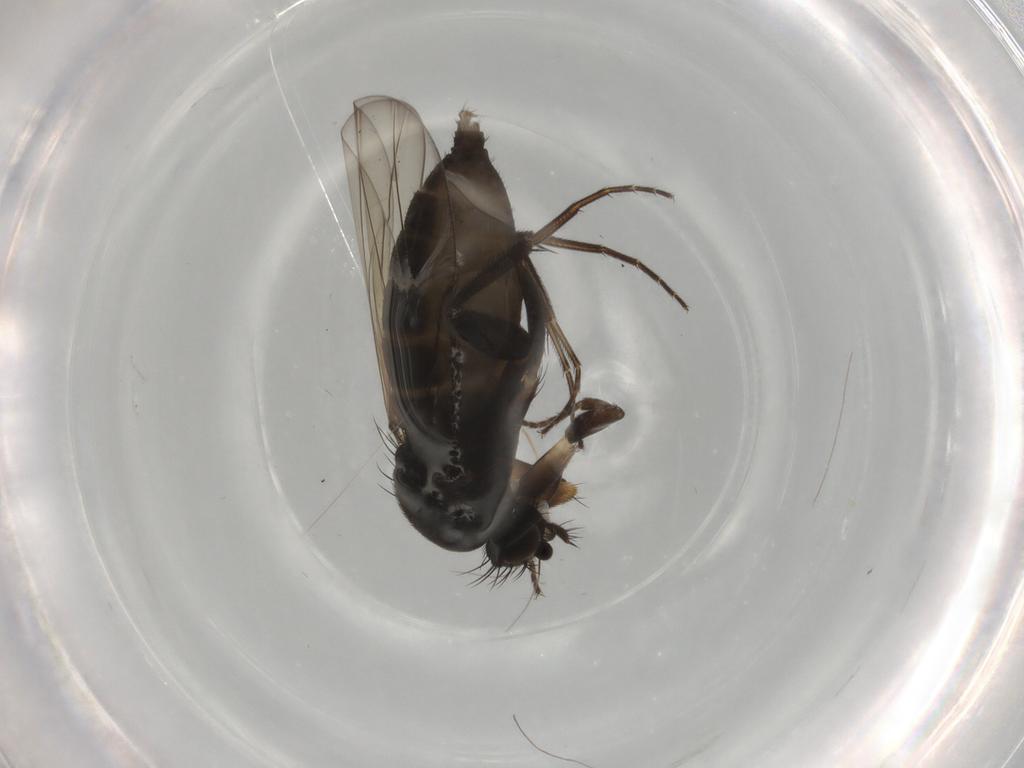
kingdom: Animalia
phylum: Arthropoda
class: Insecta
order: Diptera
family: Phoridae
